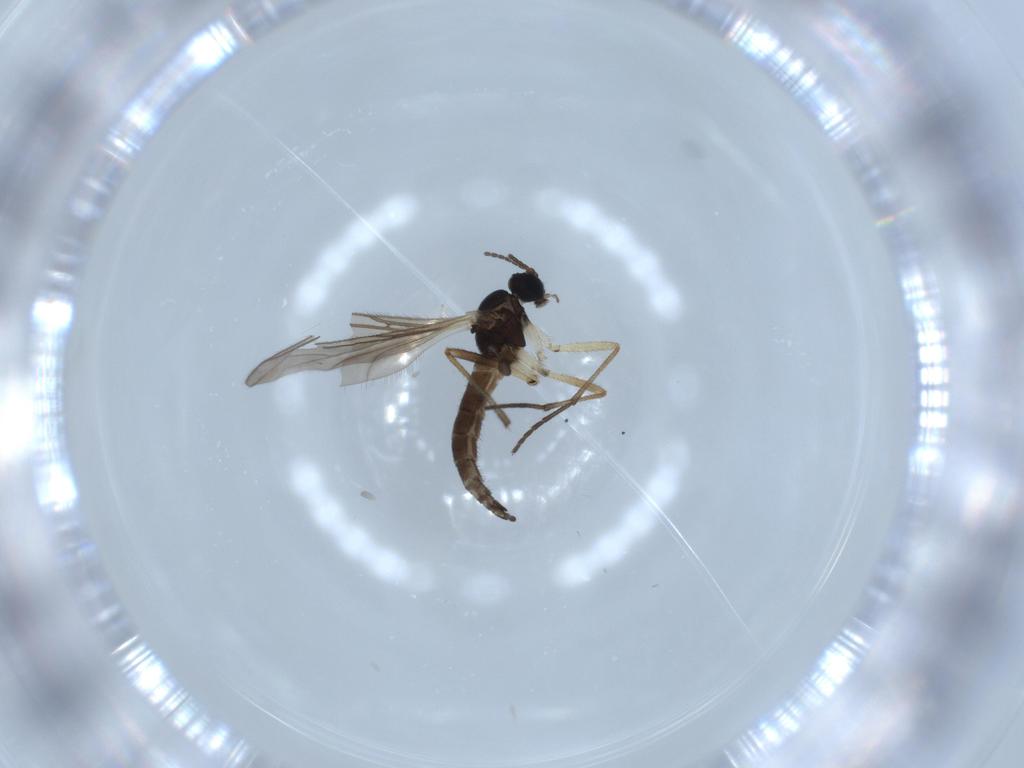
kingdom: Animalia
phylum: Arthropoda
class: Insecta
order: Diptera
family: Sciaridae
